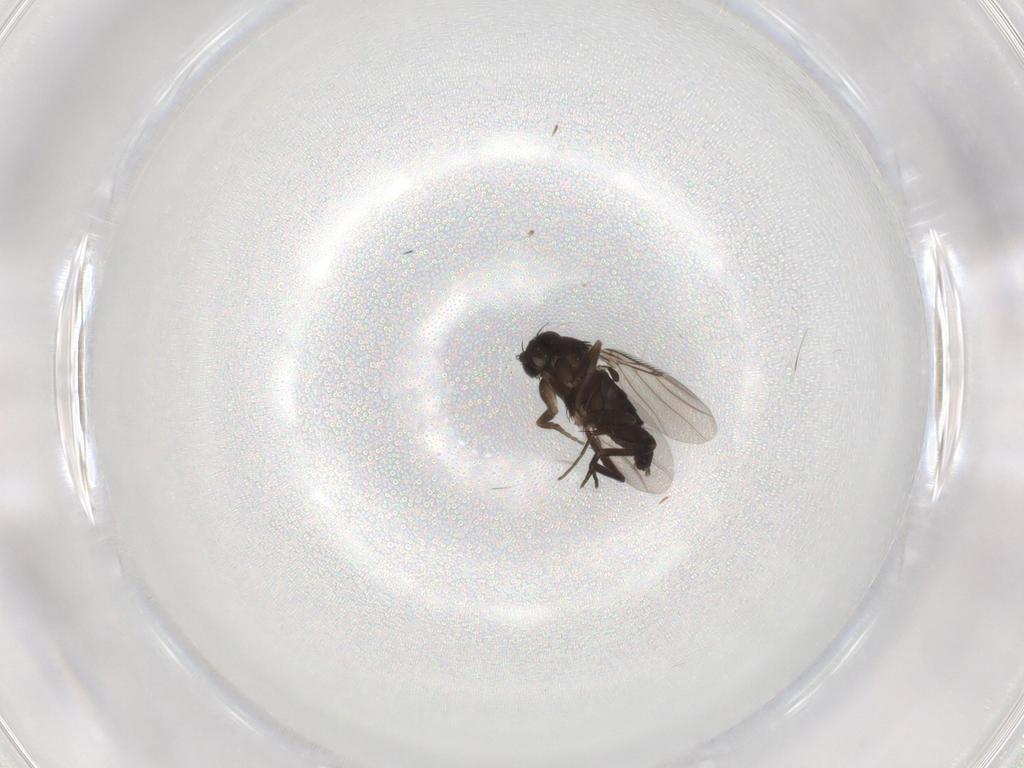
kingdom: Animalia
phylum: Arthropoda
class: Insecta
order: Diptera
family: Phoridae
